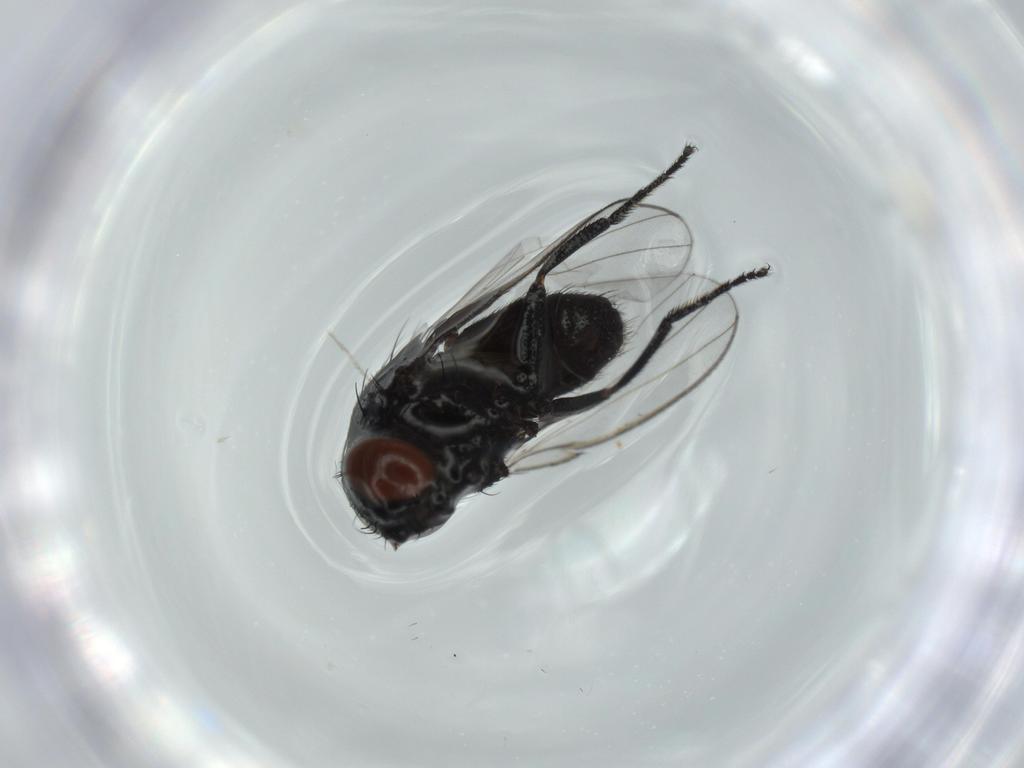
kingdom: Animalia
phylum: Arthropoda
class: Insecta
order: Diptera
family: Milichiidae
